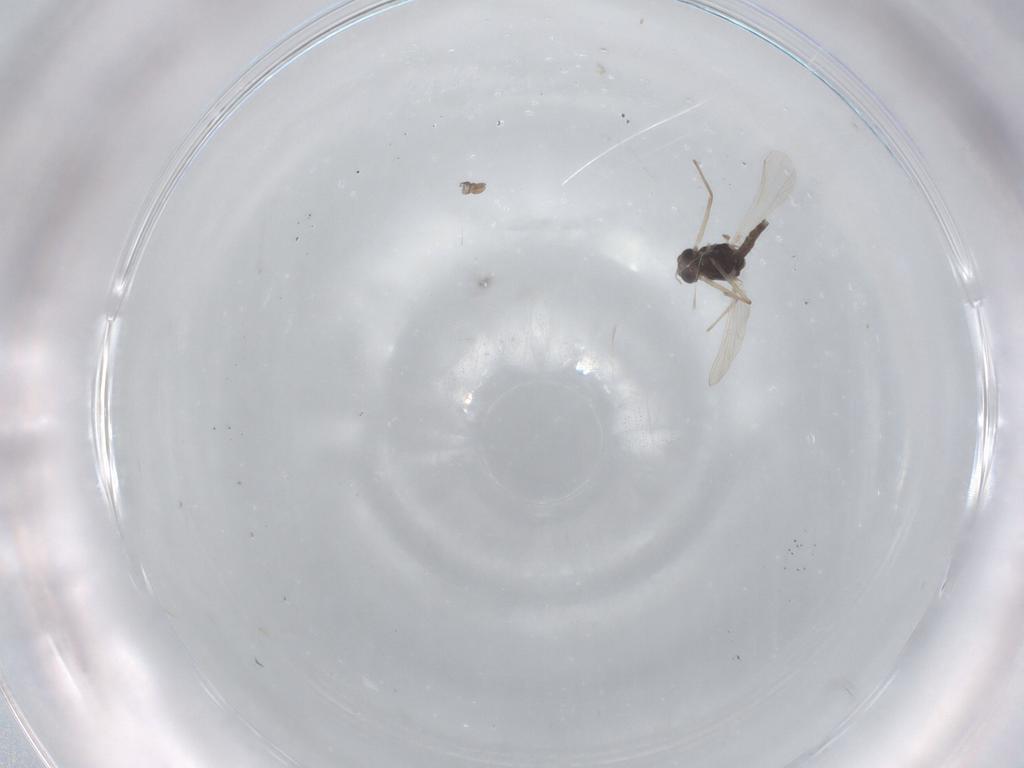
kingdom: Animalia
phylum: Arthropoda
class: Insecta
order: Diptera
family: Chironomidae
